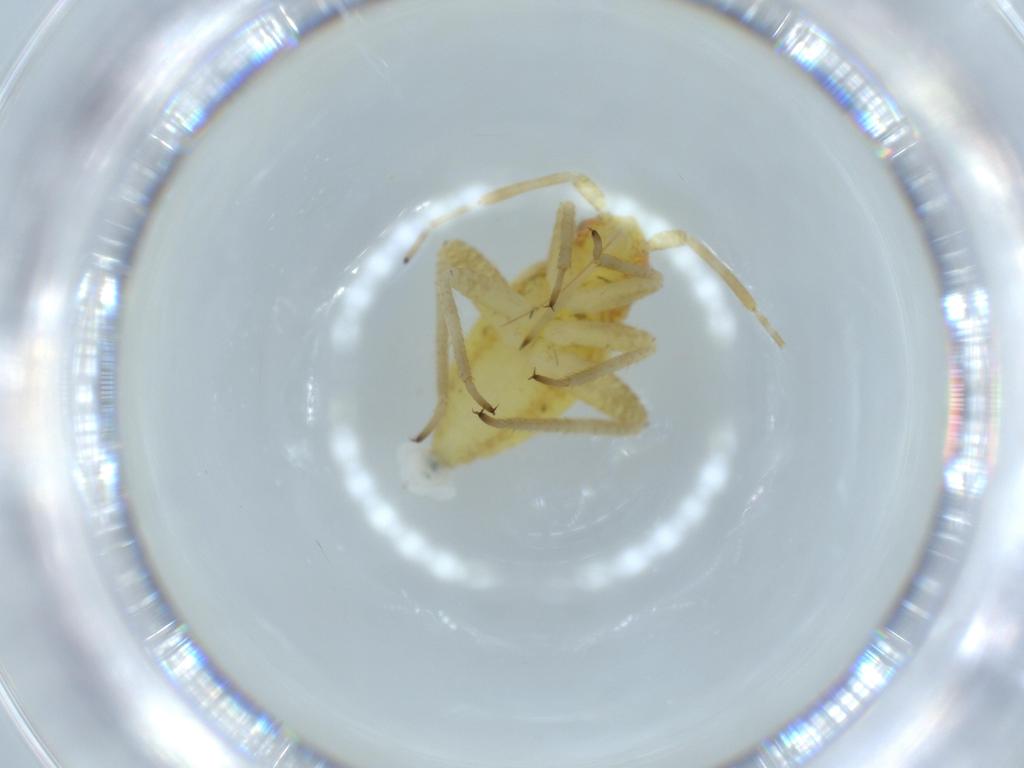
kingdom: Animalia
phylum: Arthropoda
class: Insecta
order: Hemiptera
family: Miridae
